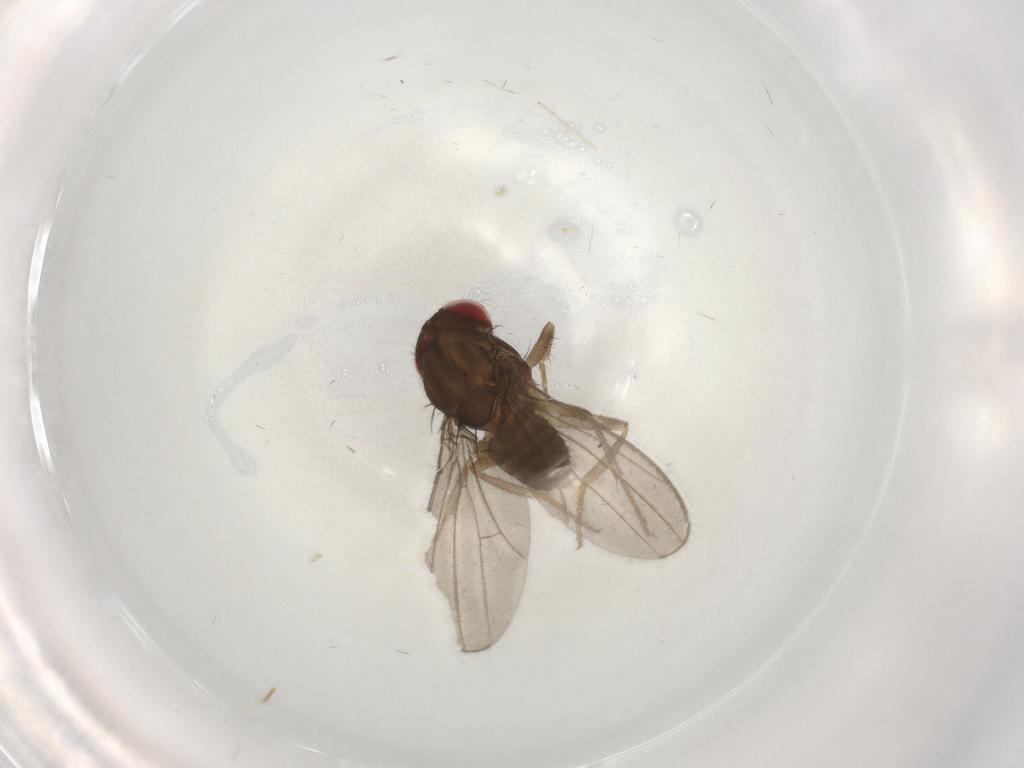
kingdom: Animalia
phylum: Arthropoda
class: Insecta
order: Diptera
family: Drosophilidae
